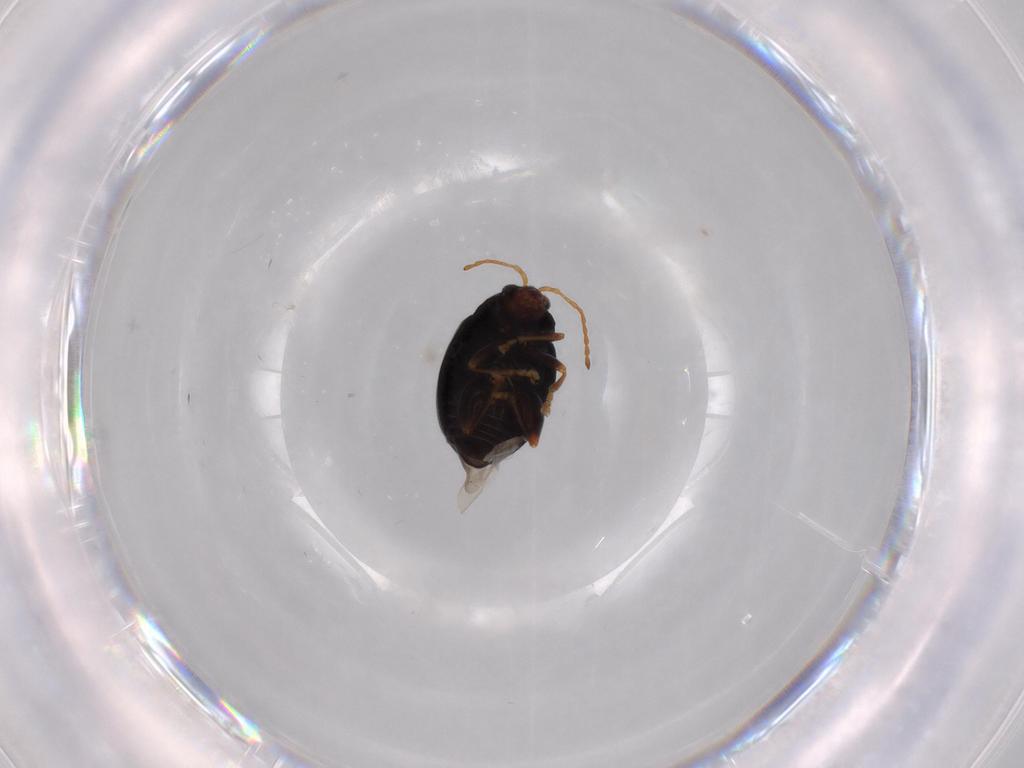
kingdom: Animalia
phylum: Arthropoda
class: Insecta
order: Coleoptera
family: Chrysomelidae
